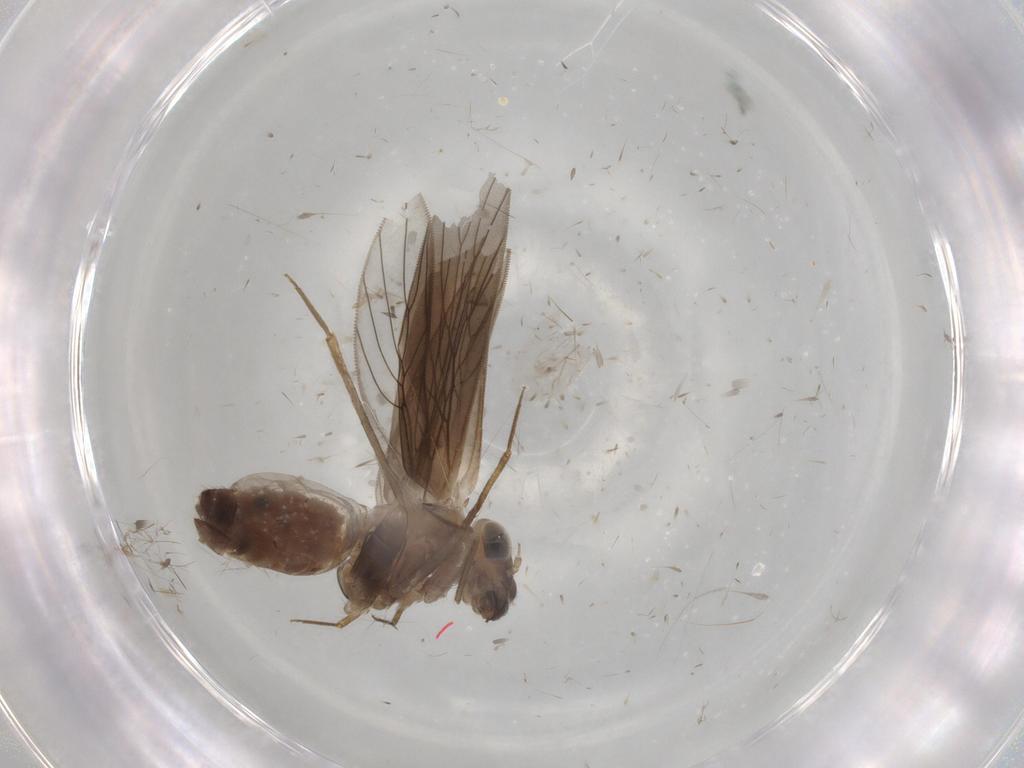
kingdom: Animalia
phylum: Arthropoda
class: Insecta
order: Psocodea
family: Lepidopsocidae
